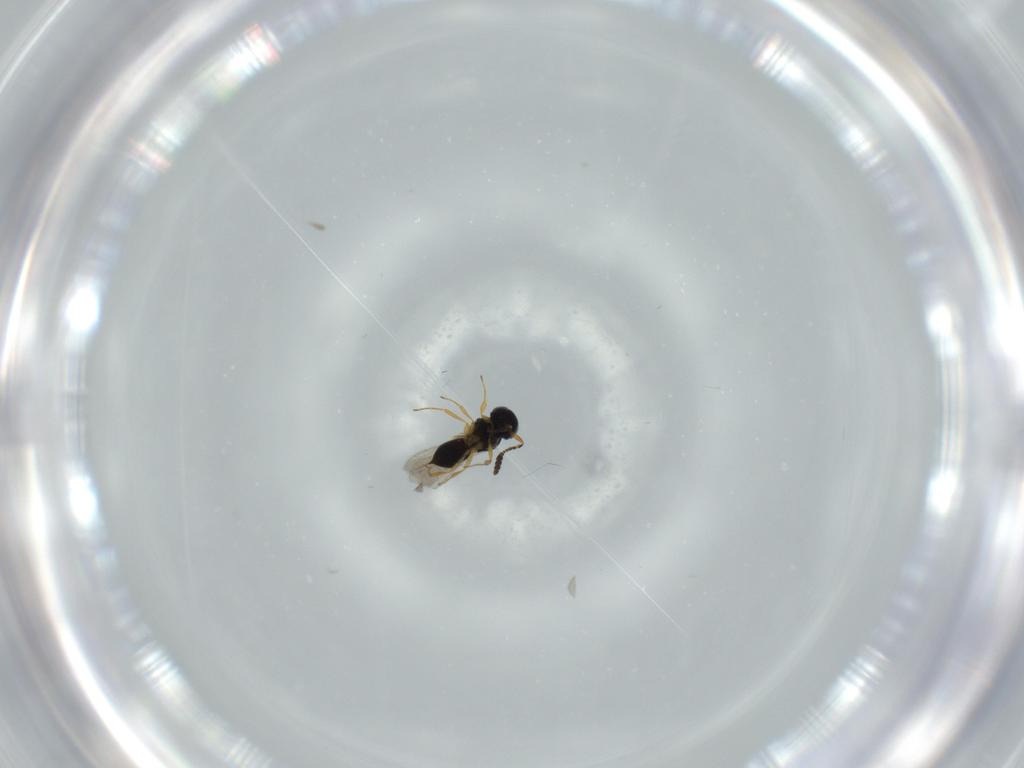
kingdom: Animalia
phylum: Arthropoda
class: Insecta
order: Hymenoptera
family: Scelionidae
